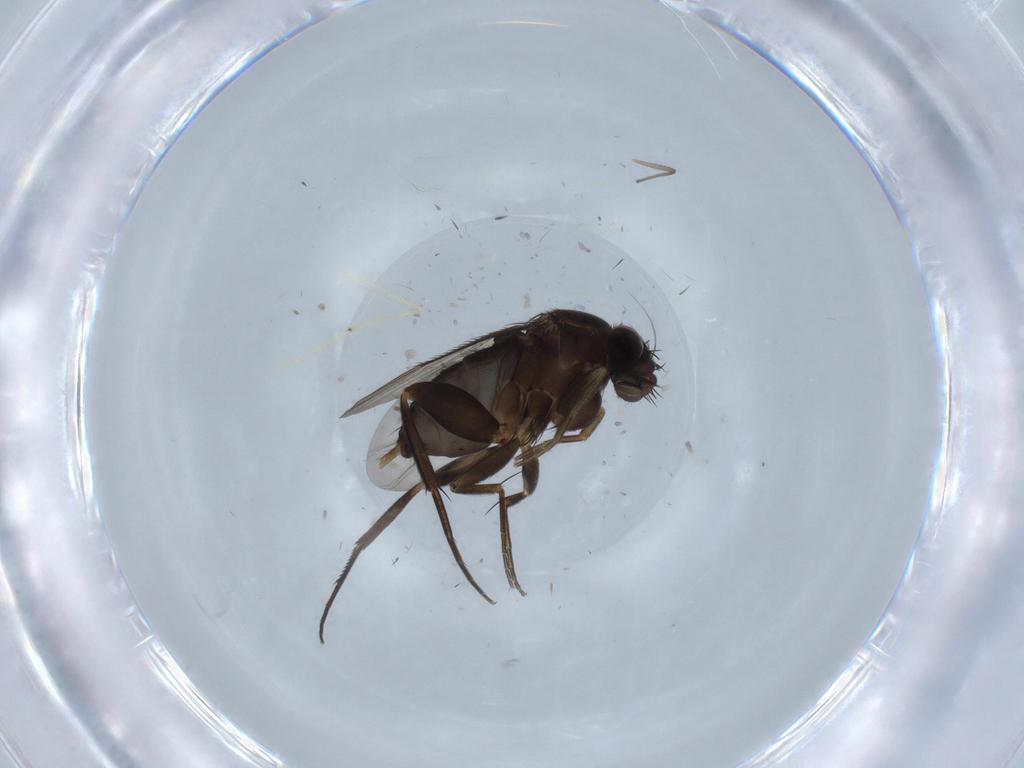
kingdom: Animalia
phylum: Arthropoda
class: Insecta
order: Diptera
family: Phoridae
